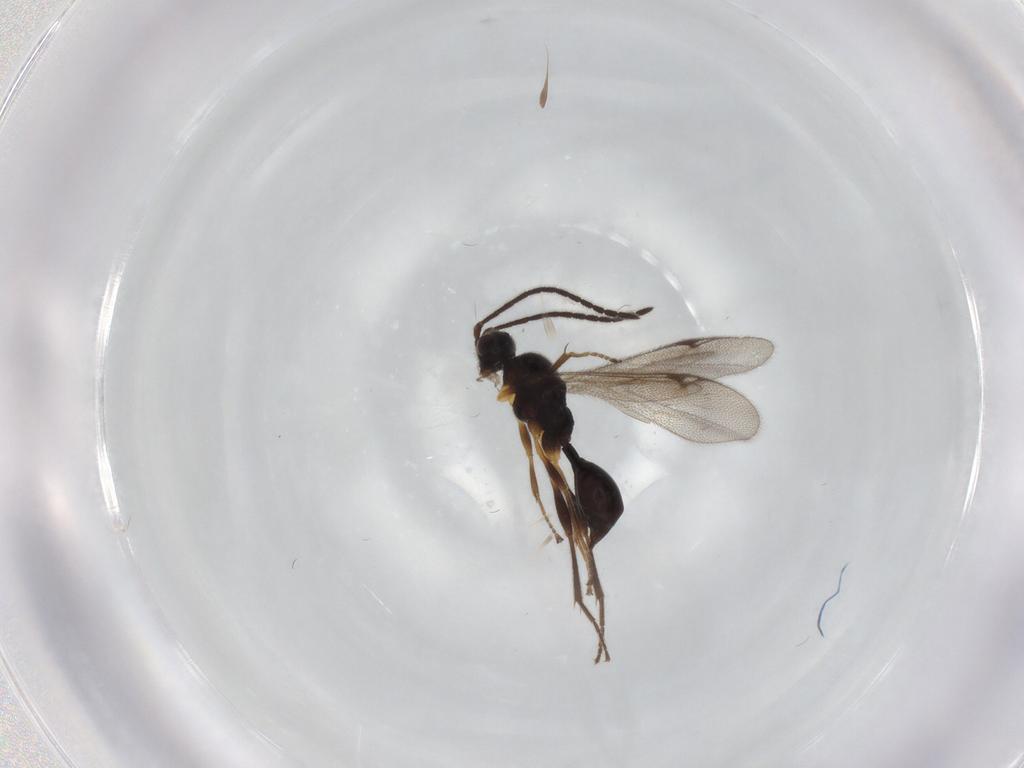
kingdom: Animalia
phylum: Arthropoda
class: Insecta
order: Hymenoptera
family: Proctotrupidae
